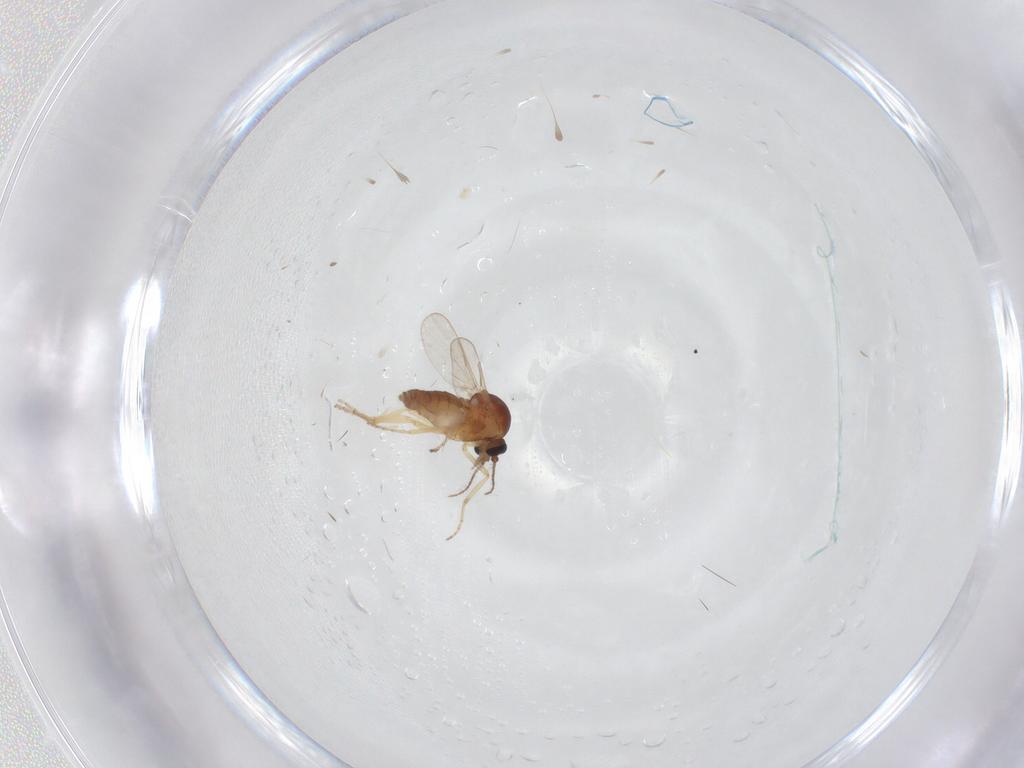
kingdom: Animalia
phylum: Arthropoda
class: Insecta
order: Diptera
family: Ceratopogonidae
